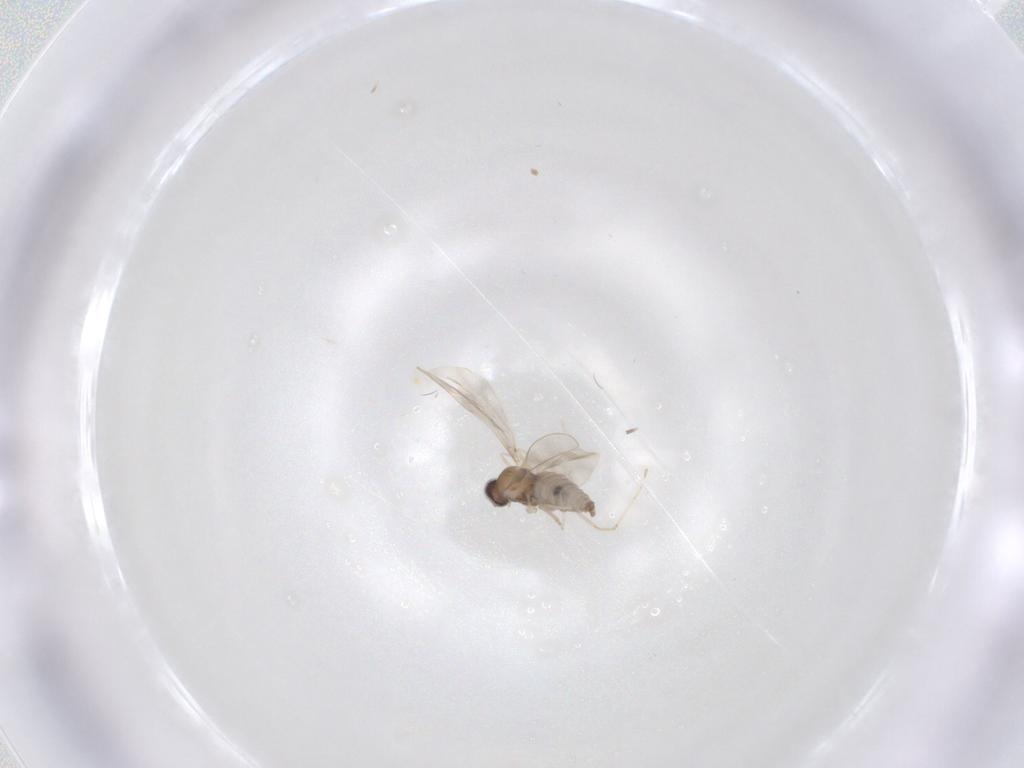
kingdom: Animalia
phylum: Arthropoda
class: Insecta
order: Diptera
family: Cecidomyiidae
